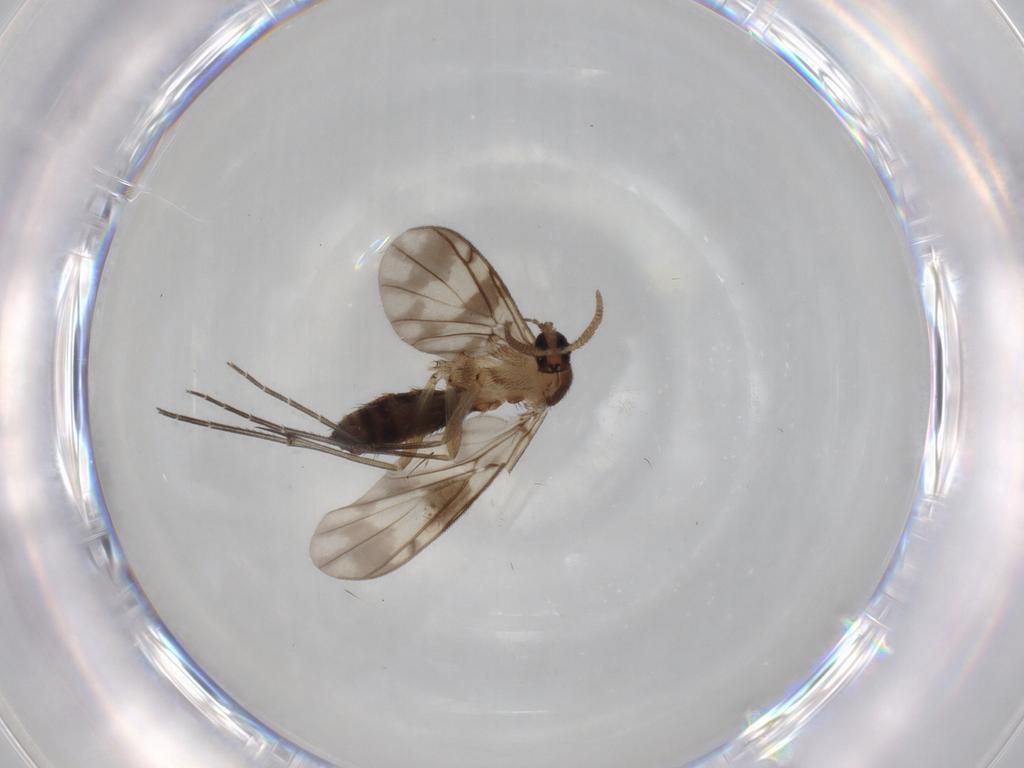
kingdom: Animalia
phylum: Arthropoda
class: Insecta
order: Diptera
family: Keroplatidae
